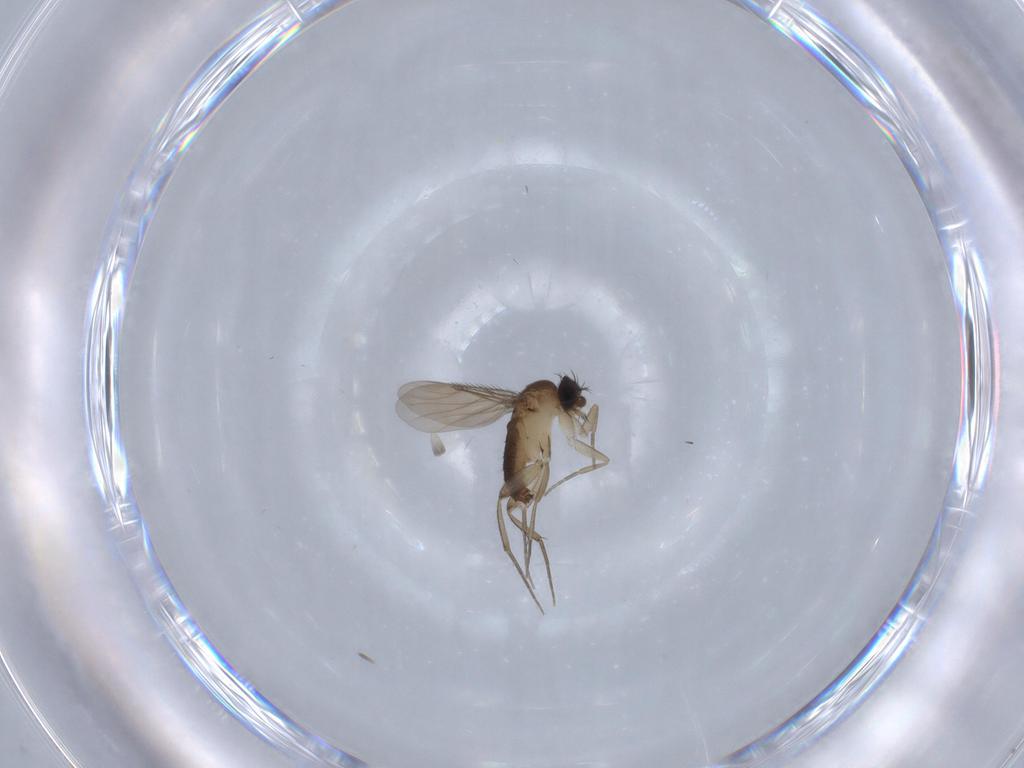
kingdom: Animalia
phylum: Arthropoda
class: Insecta
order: Diptera
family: Phoridae
